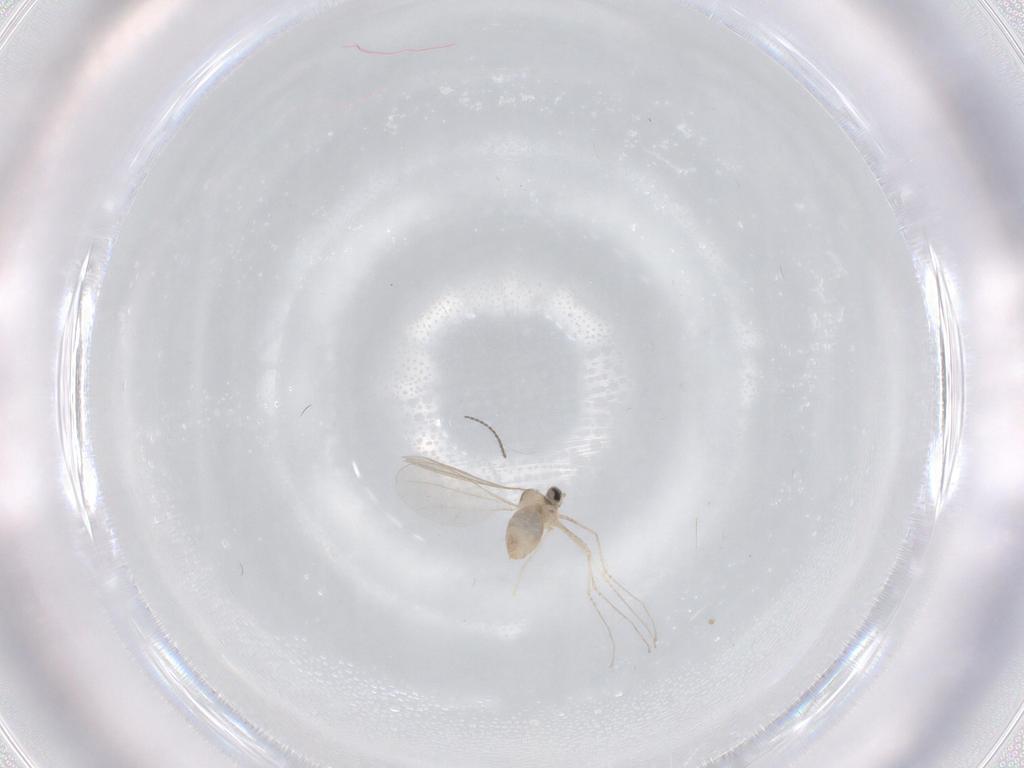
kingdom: Animalia
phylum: Arthropoda
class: Insecta
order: Diptera
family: Cecidomyiidae
